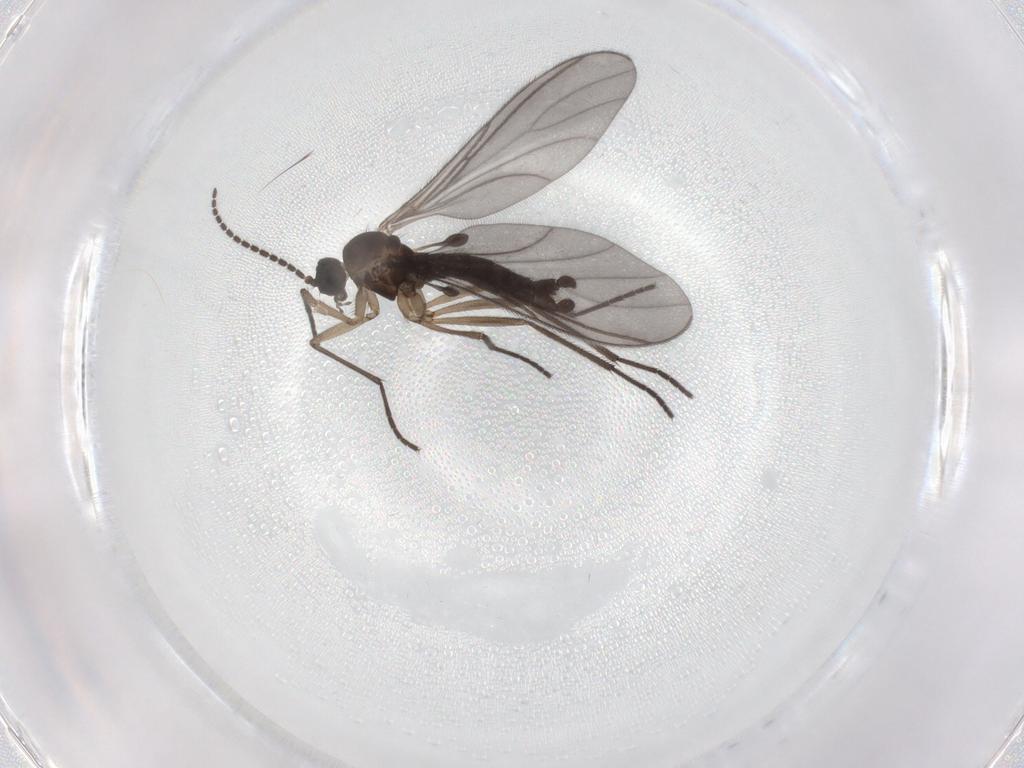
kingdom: Animalia
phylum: Arthropoda
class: Insecta
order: Diptera
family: Sciaridae
